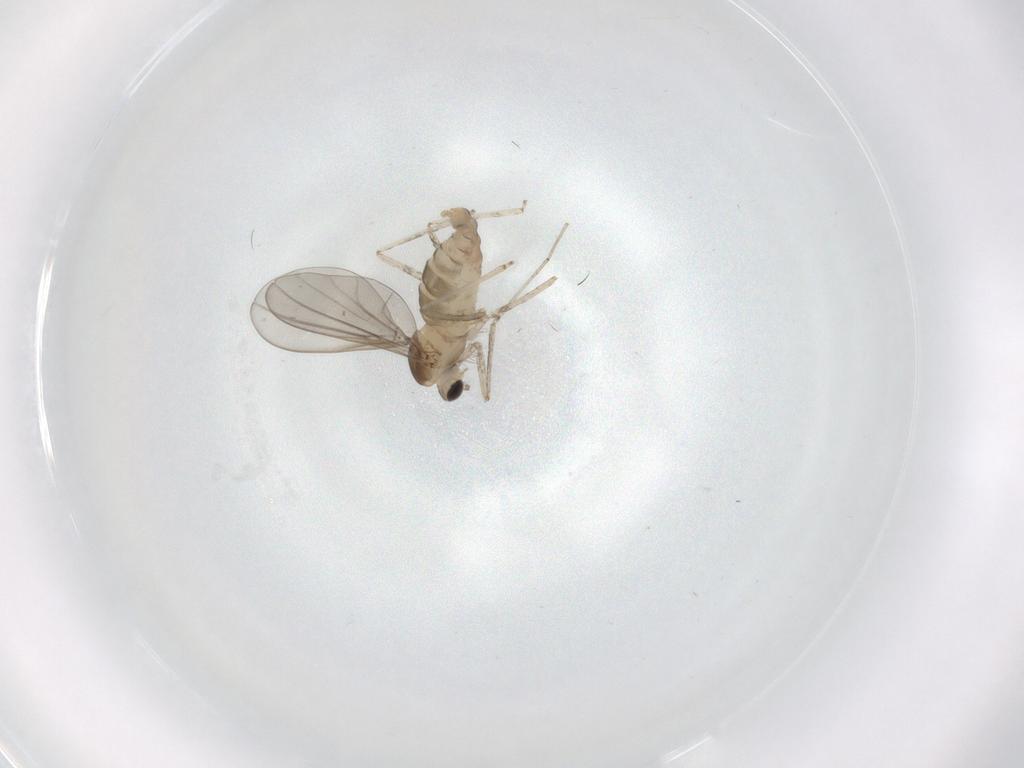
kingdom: Animalia
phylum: Arthropoda
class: Insecta
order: Diptera
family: Cecidomyiidae
